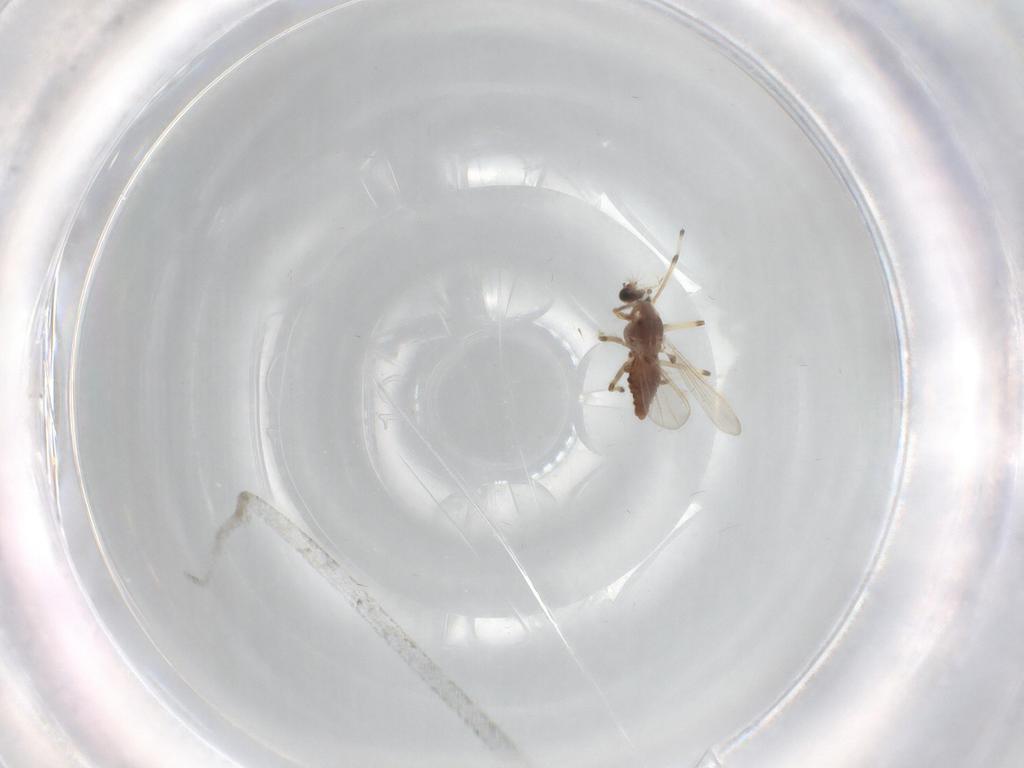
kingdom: Animalia
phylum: Arthropoda
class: Insecta
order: Diptera
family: Chironomidae
